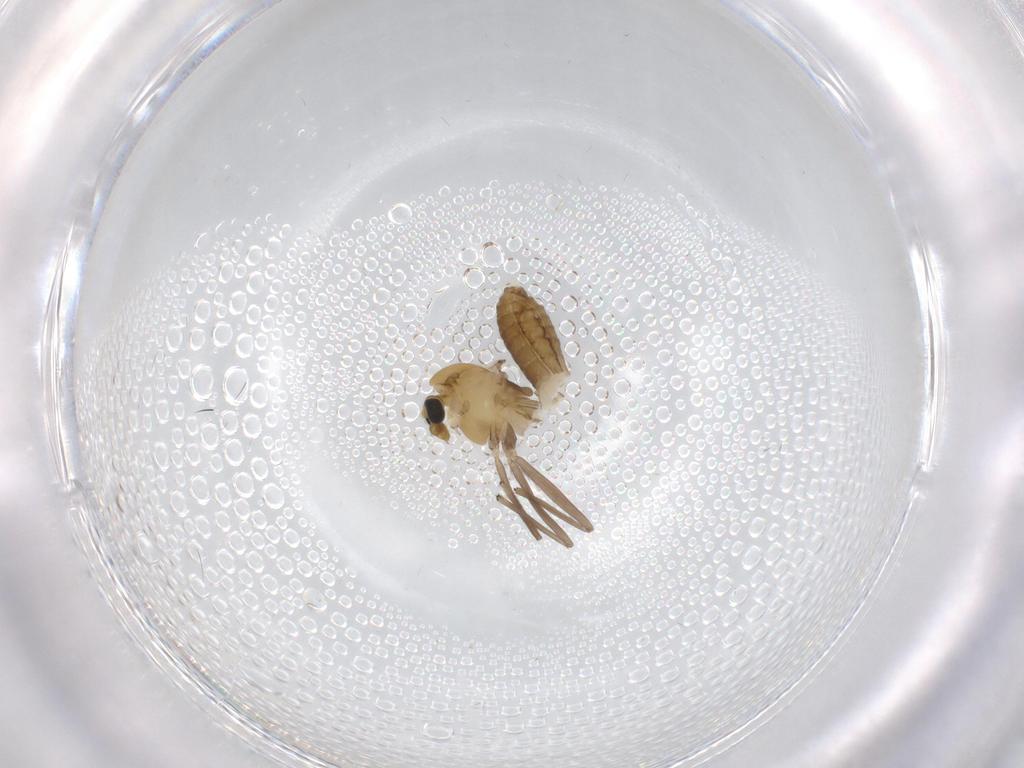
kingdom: Animalia
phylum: Arthropoda
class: Insecta
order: Diptera
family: Chironomidae
